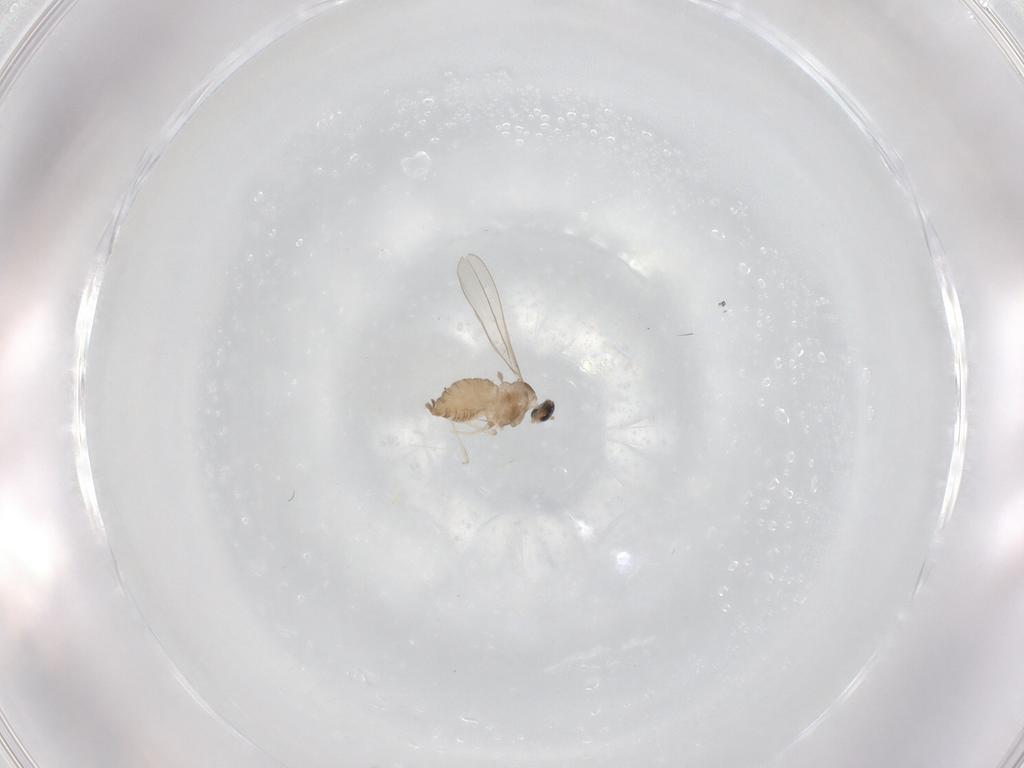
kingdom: Animalia
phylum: Arthropoda
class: Insecta
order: Diptera
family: Cecidomyiidae
